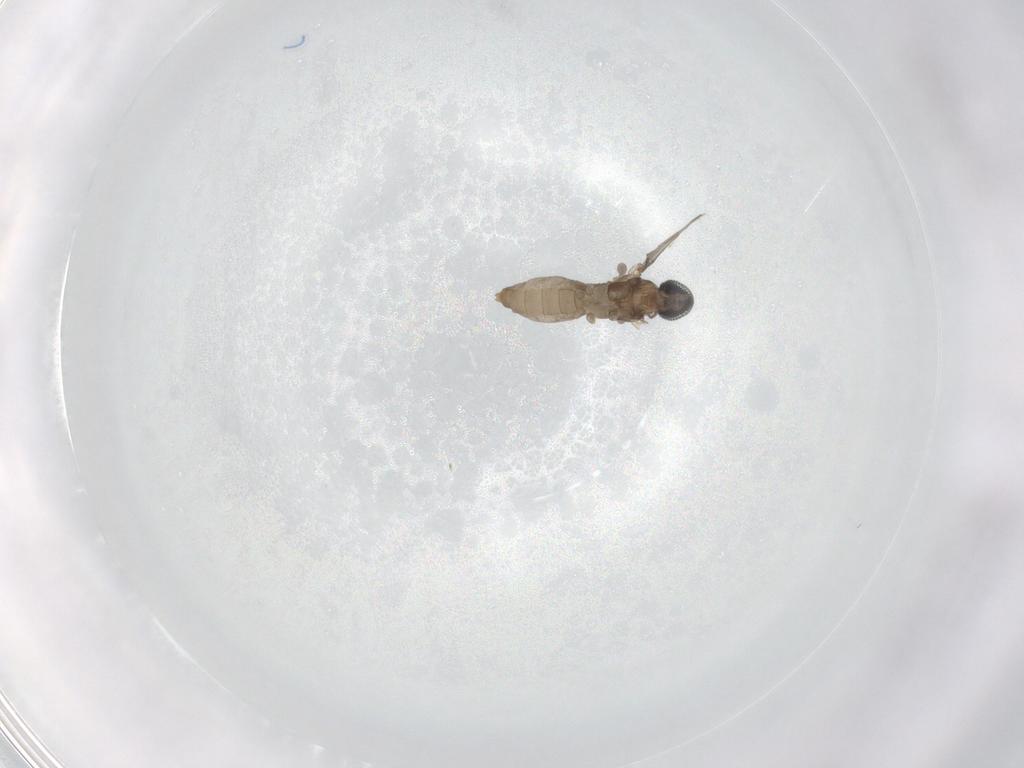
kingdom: Animalia
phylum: Arthropoda
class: Insecta
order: Diptera
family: Cecidomyiidae
